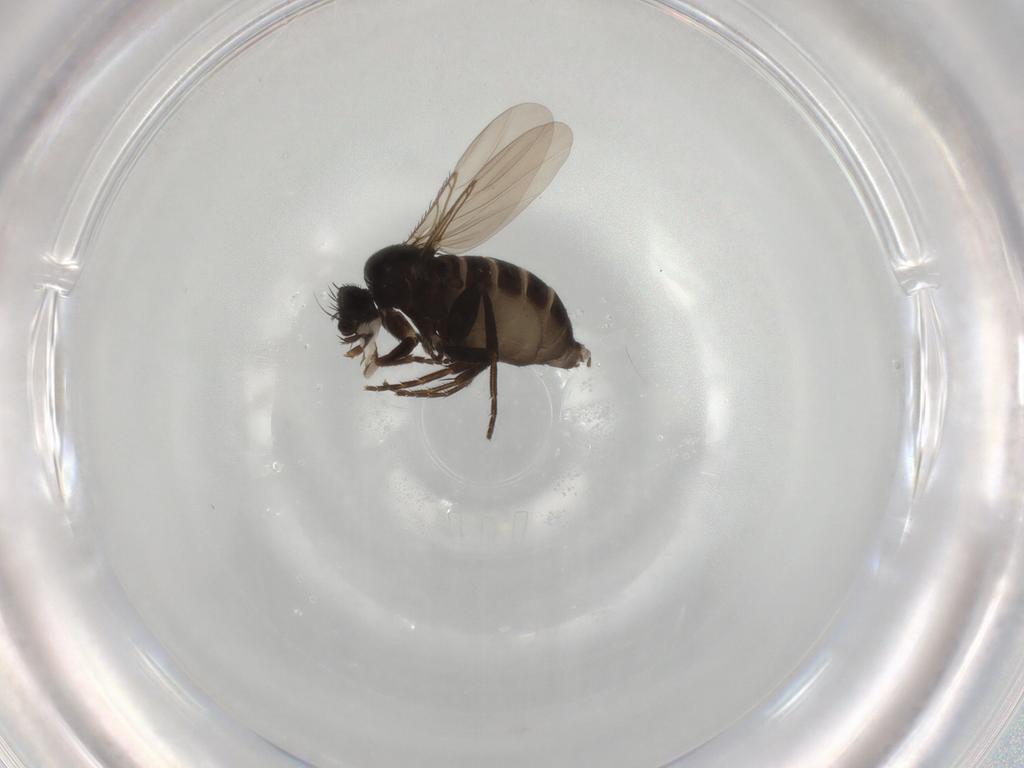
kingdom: Animalia
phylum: Arthropoda
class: Insecta
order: Diptera
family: Phoridae
